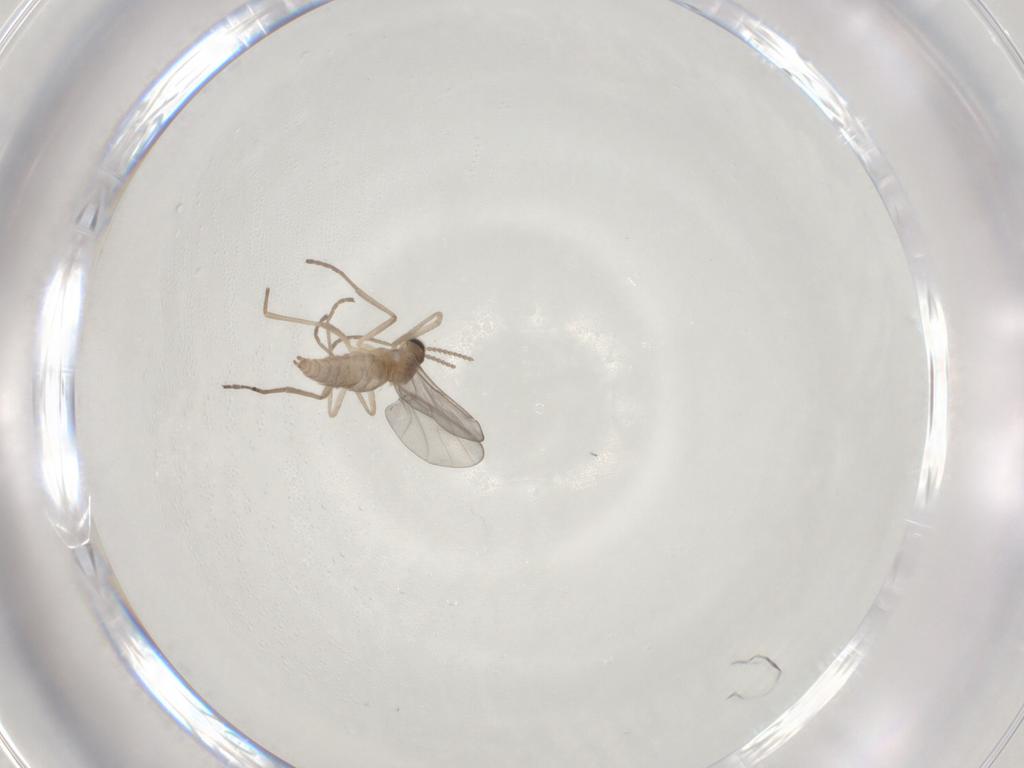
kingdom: Animalia
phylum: Arthropoda
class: Insecta
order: Diptera
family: Cecidomyiidae
